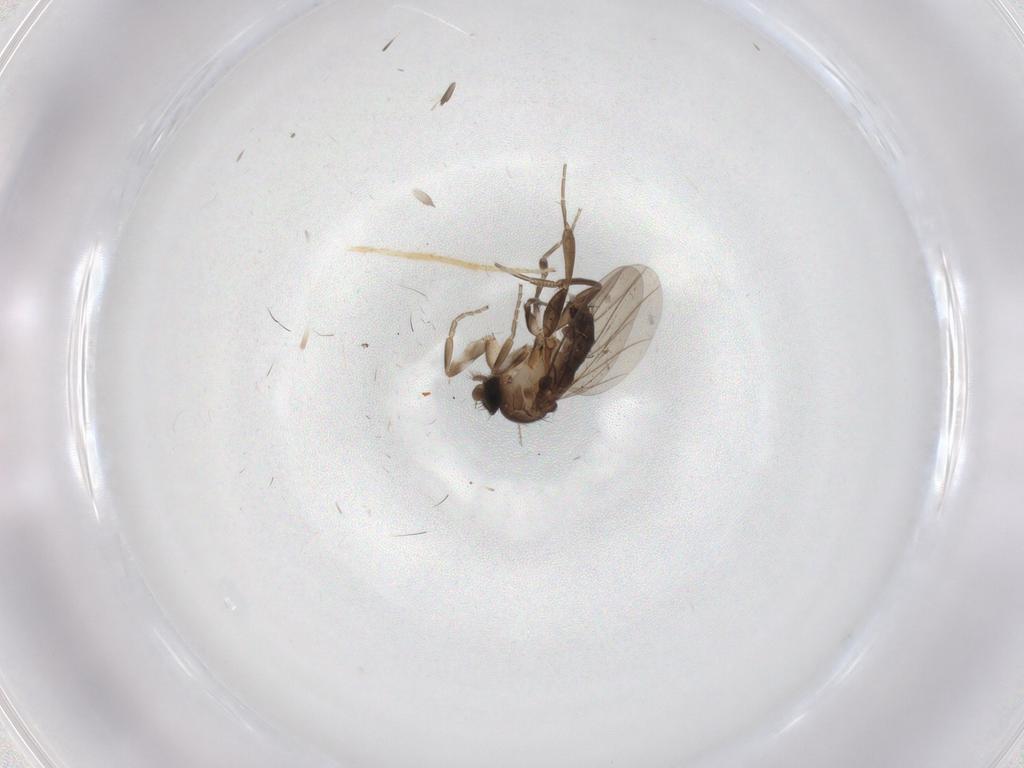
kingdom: Animalia
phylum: Arthropoda
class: Insecta
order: Diptera
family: Phoridae
